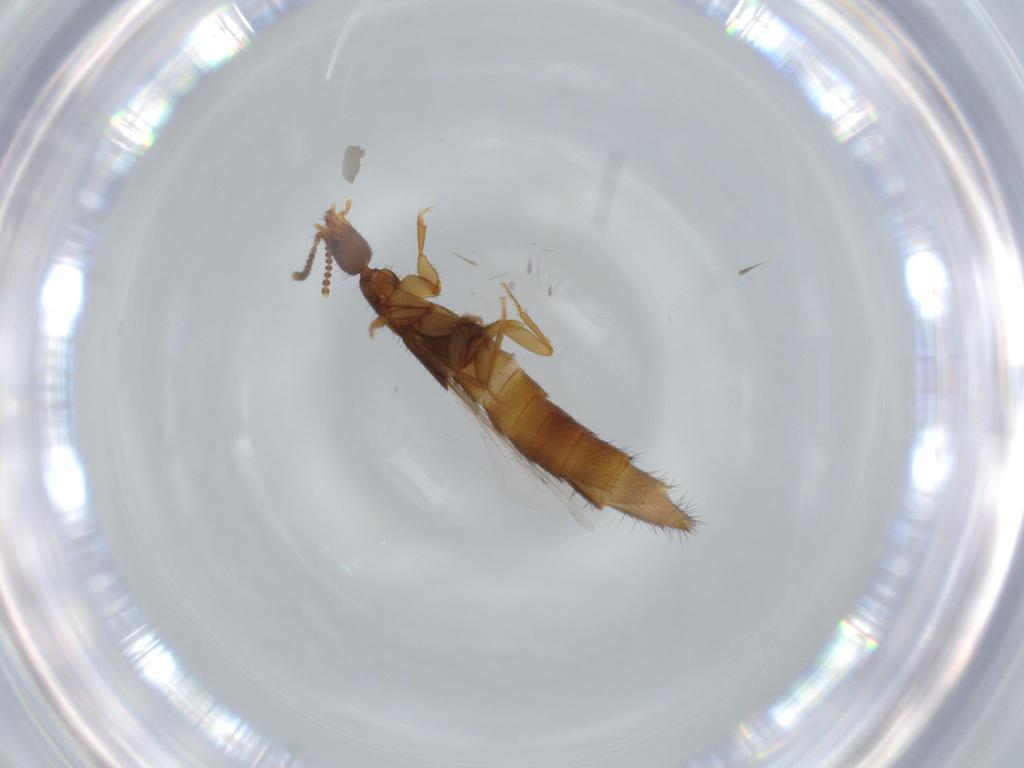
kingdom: Animalia
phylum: Arthropoda
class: Insecta
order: Coleoptera
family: Staphylinidae
